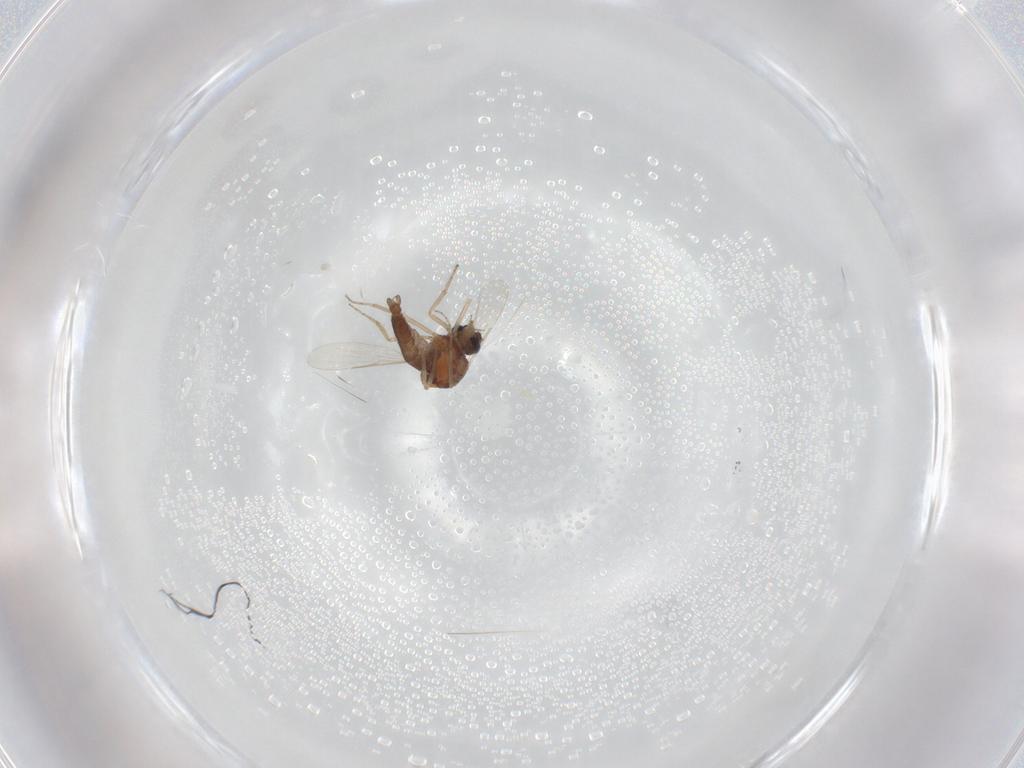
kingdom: Animalia
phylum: Arthropoda
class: Insecta
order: Diptera
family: Ceratopogonidae
